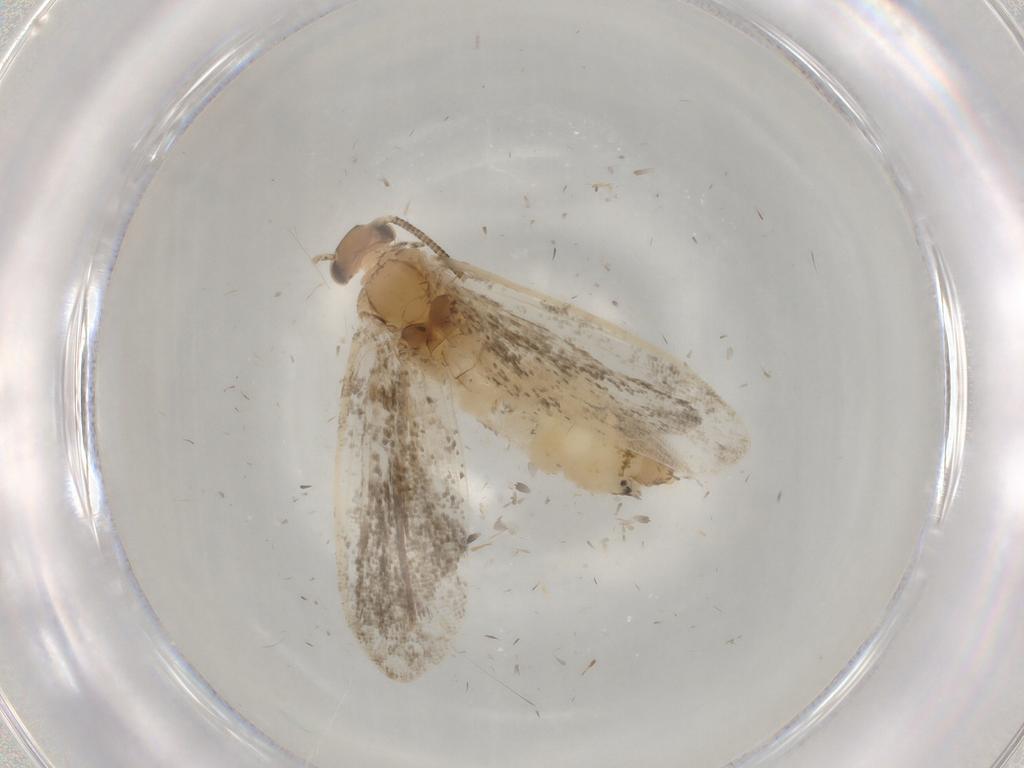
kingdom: Animalia
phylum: Arthropoda
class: Insecta
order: Lepidoptera
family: Dryadaulidae
